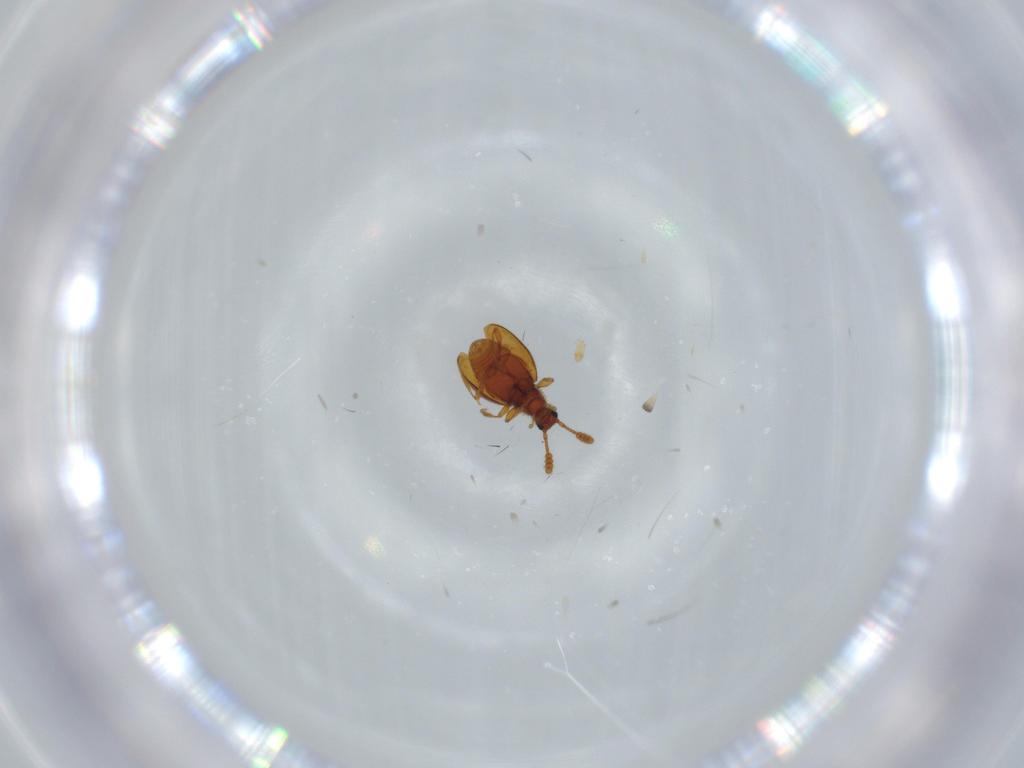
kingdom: Animalia
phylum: Arthropoda
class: Insecta
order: Coleoptera
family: Staphylinidae
